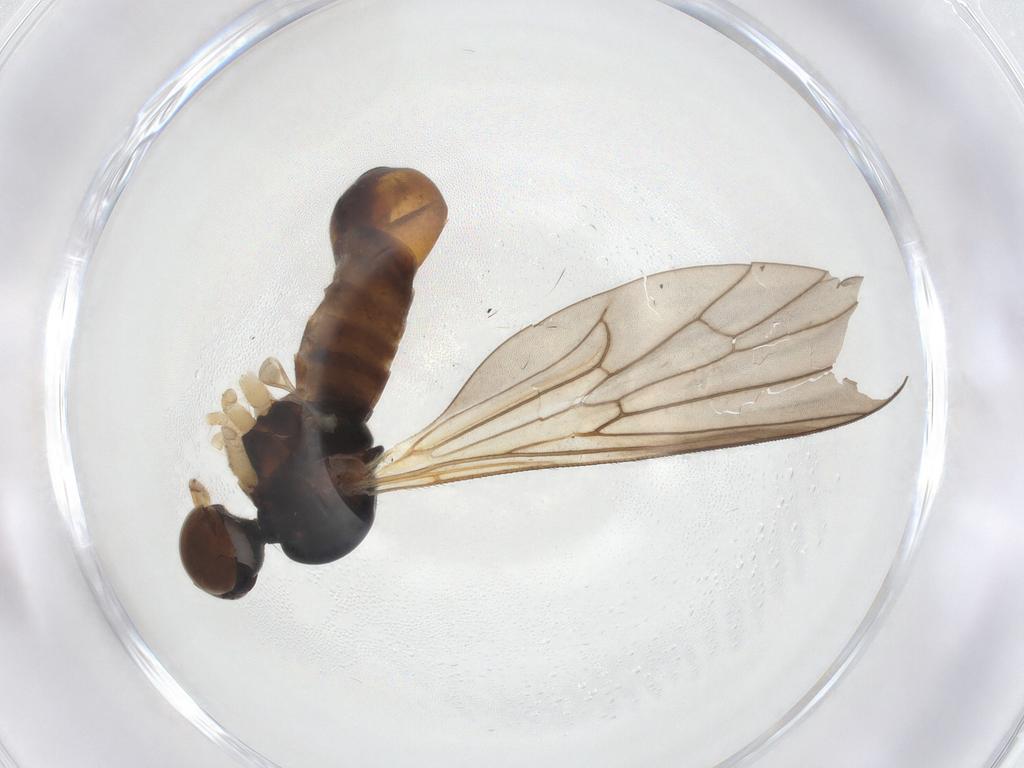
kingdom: Animalia
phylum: Arthropoda
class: Insecta
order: Diptera
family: Brachystomatidae
